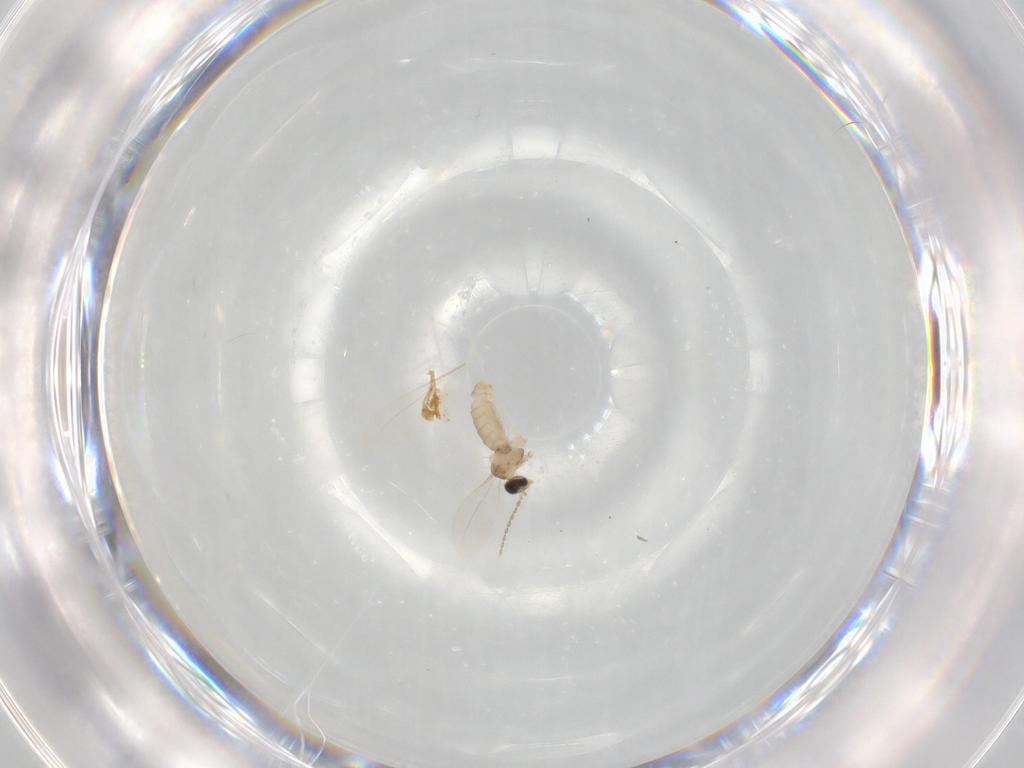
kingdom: Animalia
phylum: Arthropoda
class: Insecta
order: Diptera
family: Cecidomyiidae
